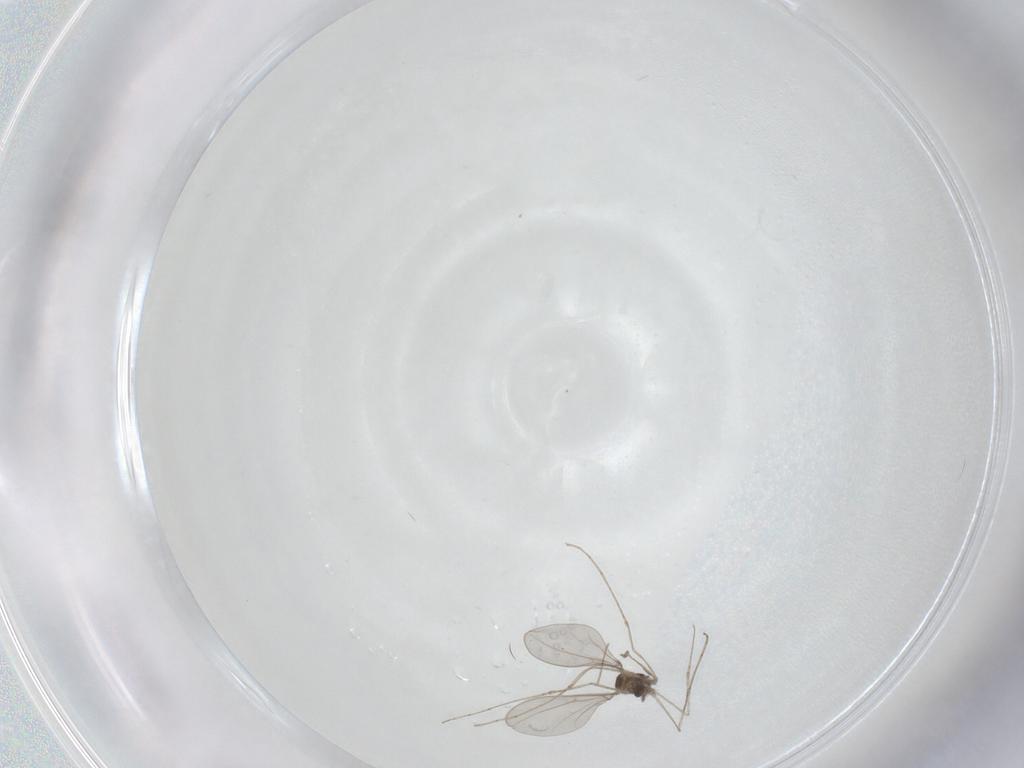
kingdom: Animalia
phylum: Arthropoda
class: Insecta
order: Diptera
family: Cecidomyiidae
